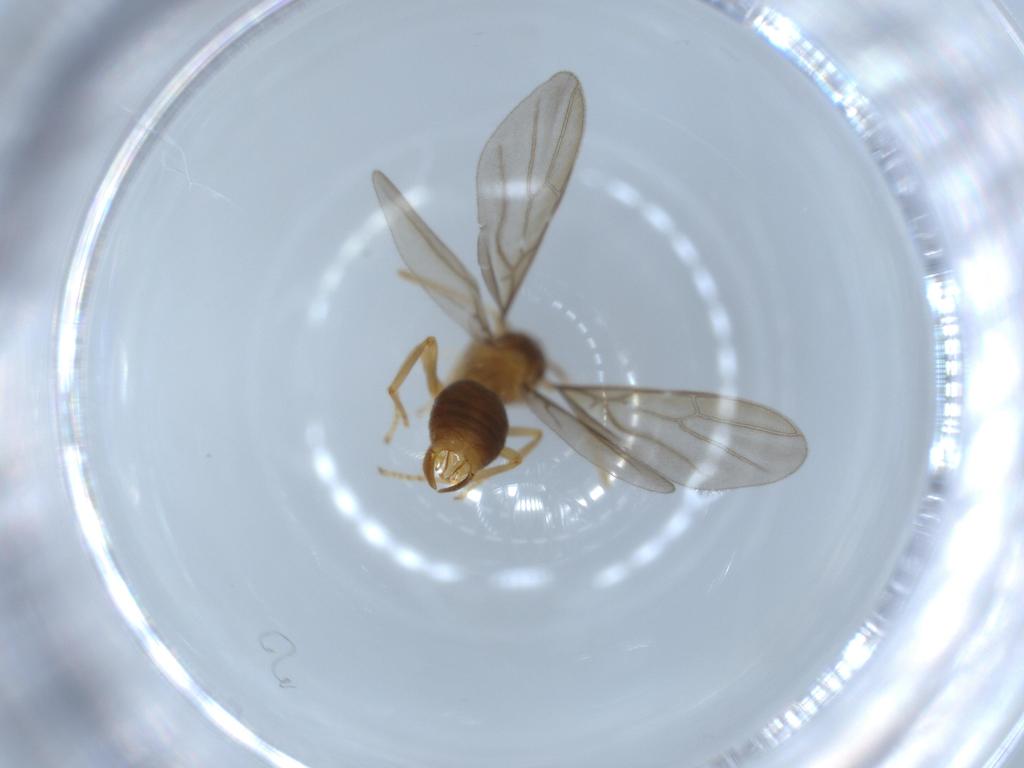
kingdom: Animalia
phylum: Arthropoda
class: Insecta
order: Hymenoptera
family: Formicidae
